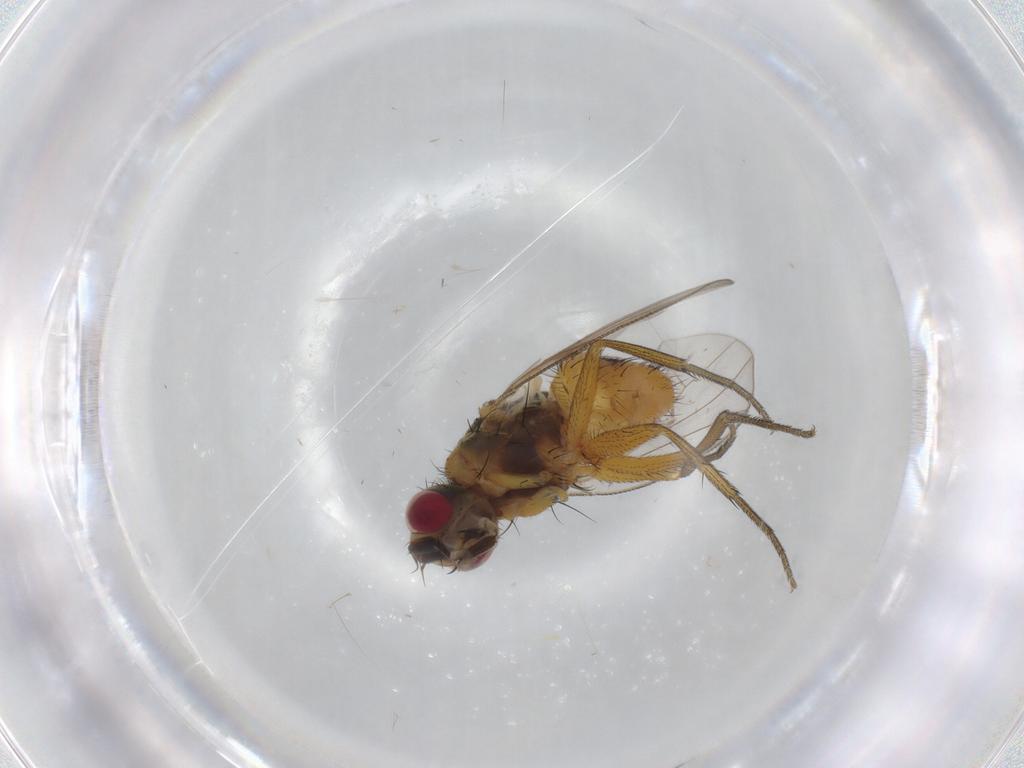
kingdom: Animalia
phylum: Arthropoda
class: Insecta
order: Diptera
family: Muscidae
